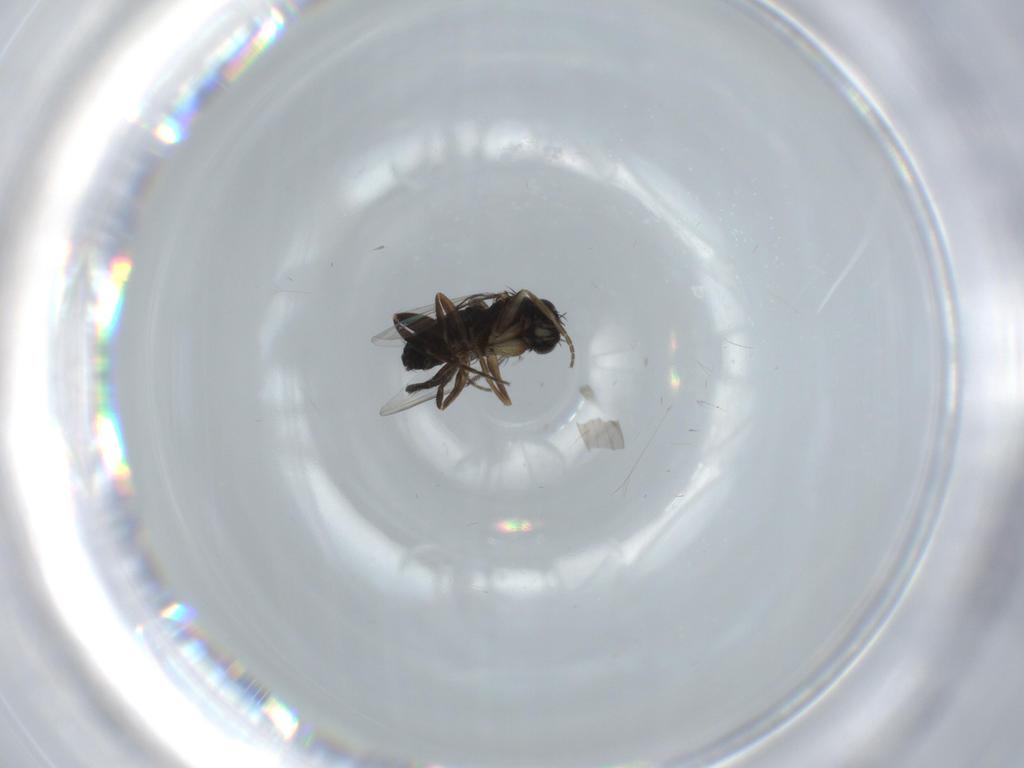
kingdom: Animalia
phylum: Arthropoda
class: Insecta
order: Diptera
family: Phoridae
